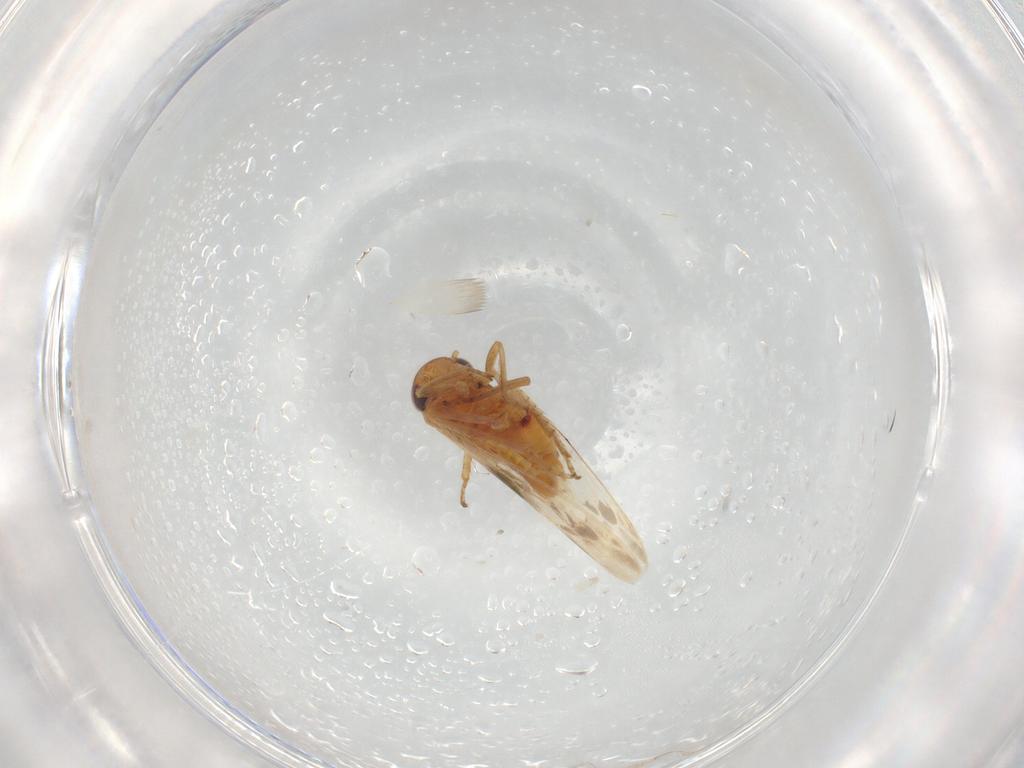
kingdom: Animalia
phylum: Arthropoda
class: Insecta
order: Hemiptera
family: Cicadellidae
